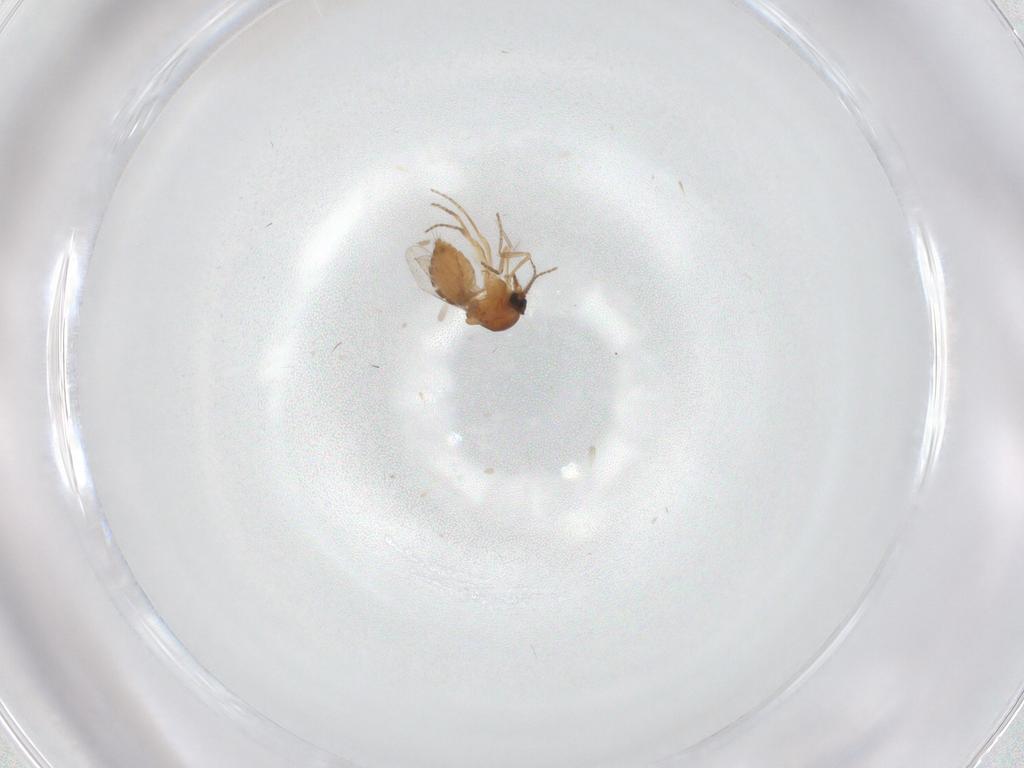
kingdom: Animalia
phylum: Arthropoda
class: Insecta
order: Diptera
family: Ceratopogonidae
